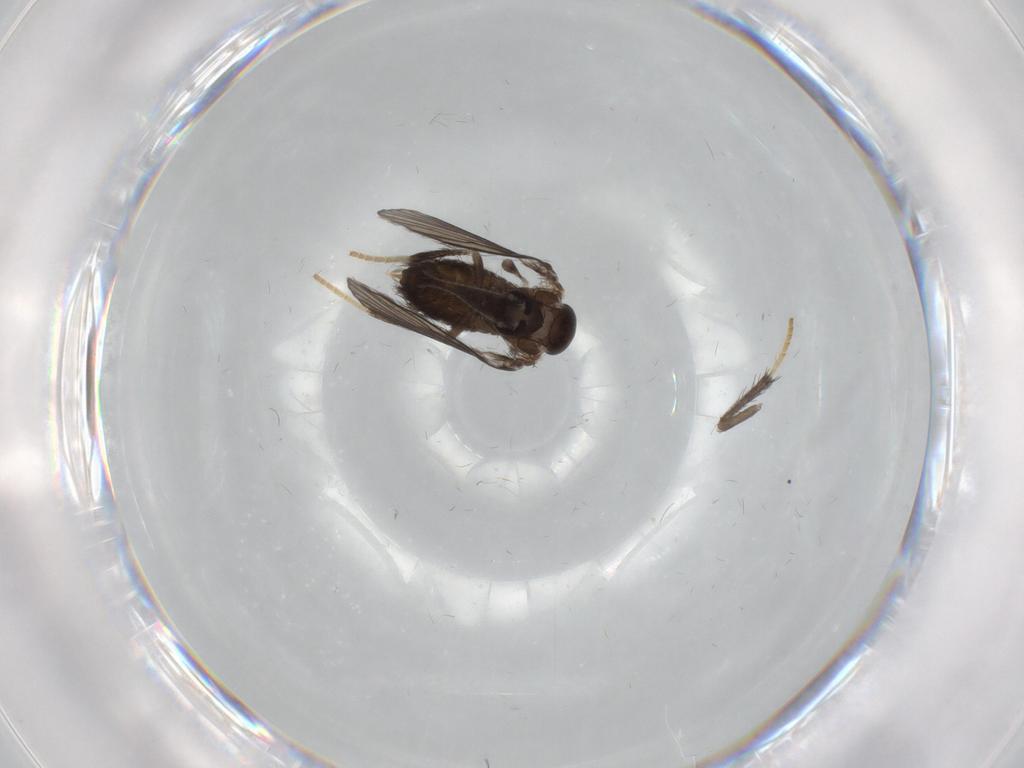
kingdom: Animalia
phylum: Arthropoda
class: Insecta
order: Diptera
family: Psychodidae
